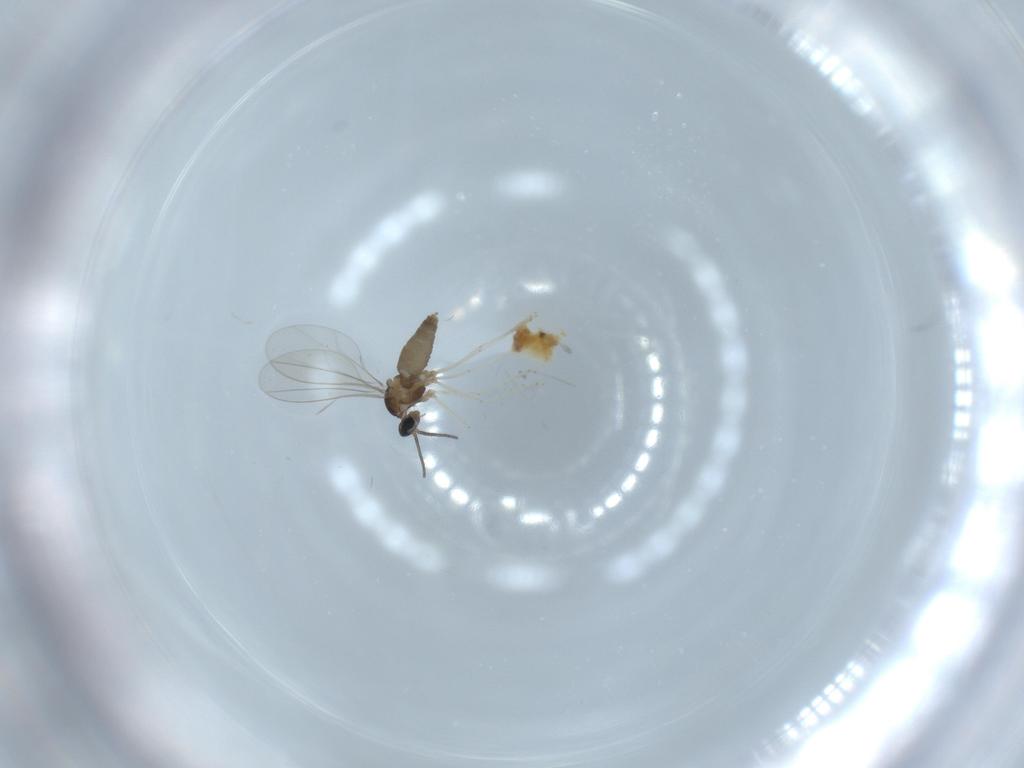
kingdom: Animalia
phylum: Arthropoda
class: Insecta
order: Diptera
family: Cecidomyiidae
